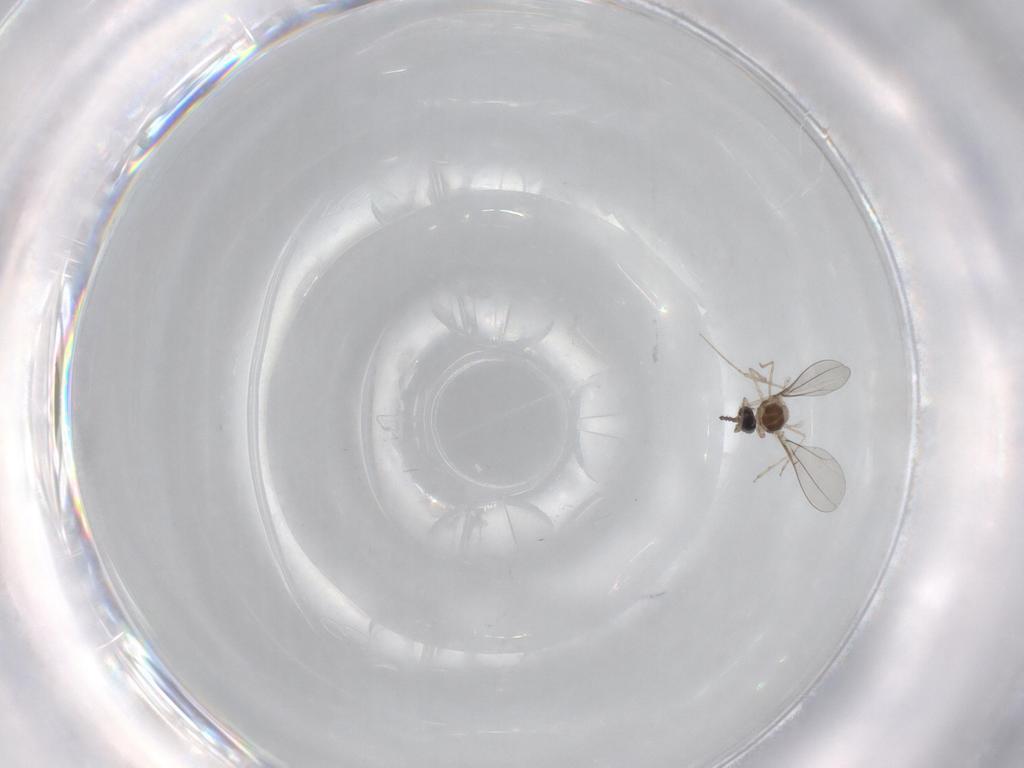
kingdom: Animalia
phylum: Arthropoda
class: Insecta
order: Diptera
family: Cecidomyiidae
